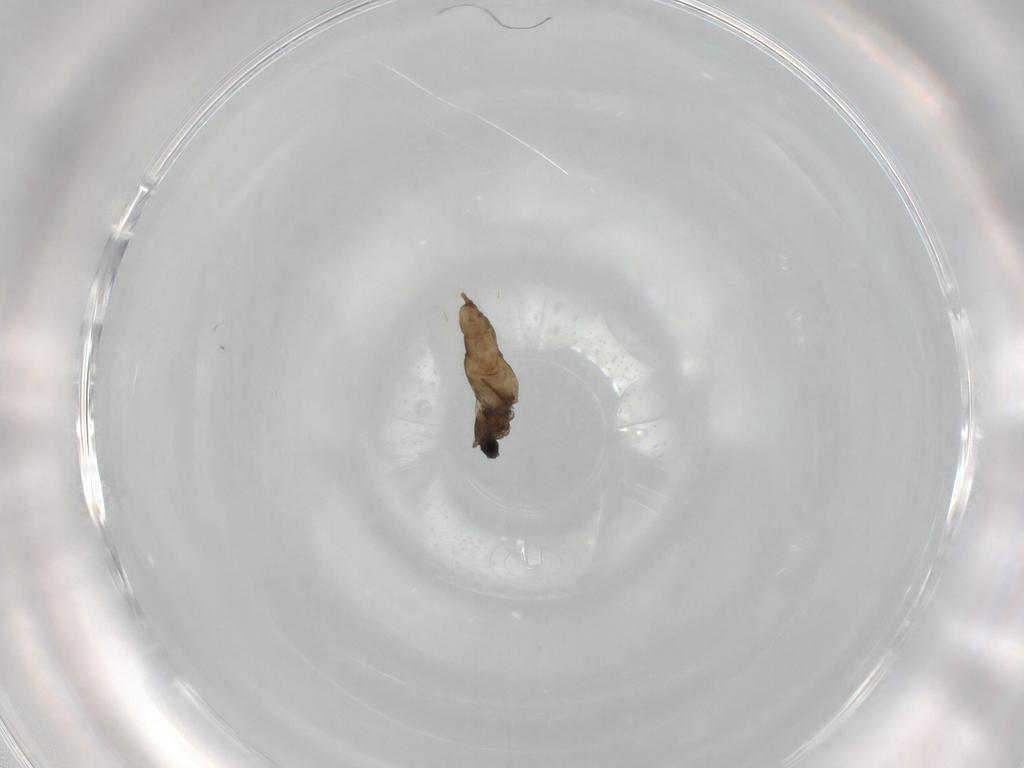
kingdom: Animalia
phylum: Arthropoda
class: Insecta
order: Diptera
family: Cecidomyiidae
